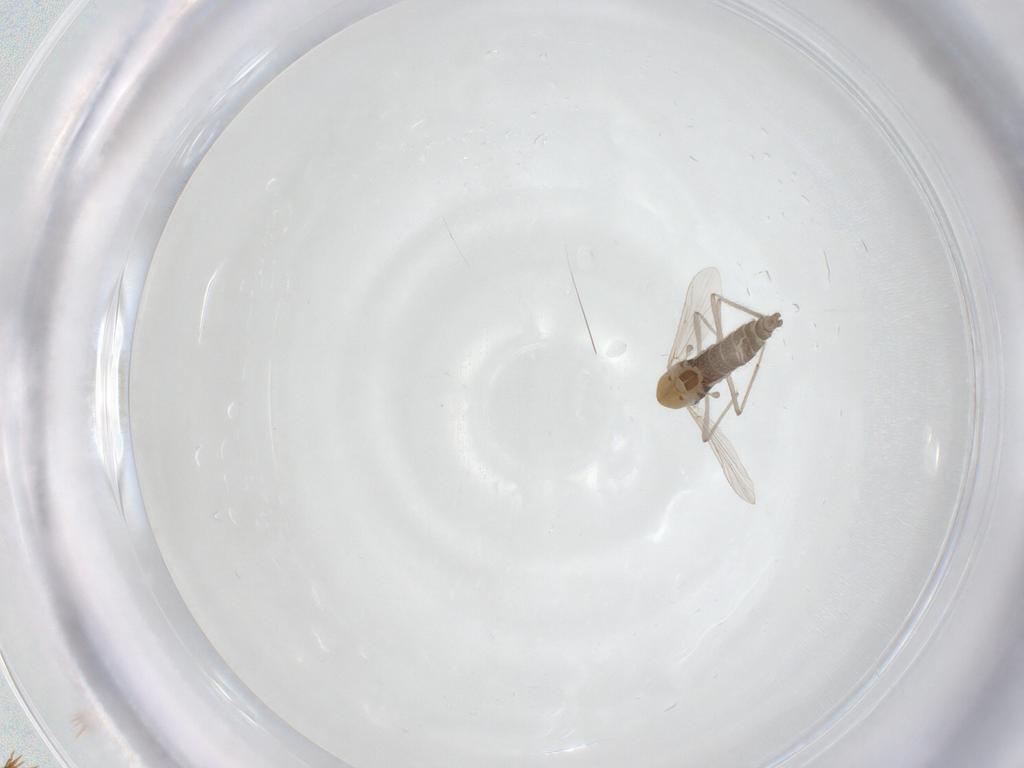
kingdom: Animalia
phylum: Arthropoda
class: Insecta
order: Diptera
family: Chironomidae
